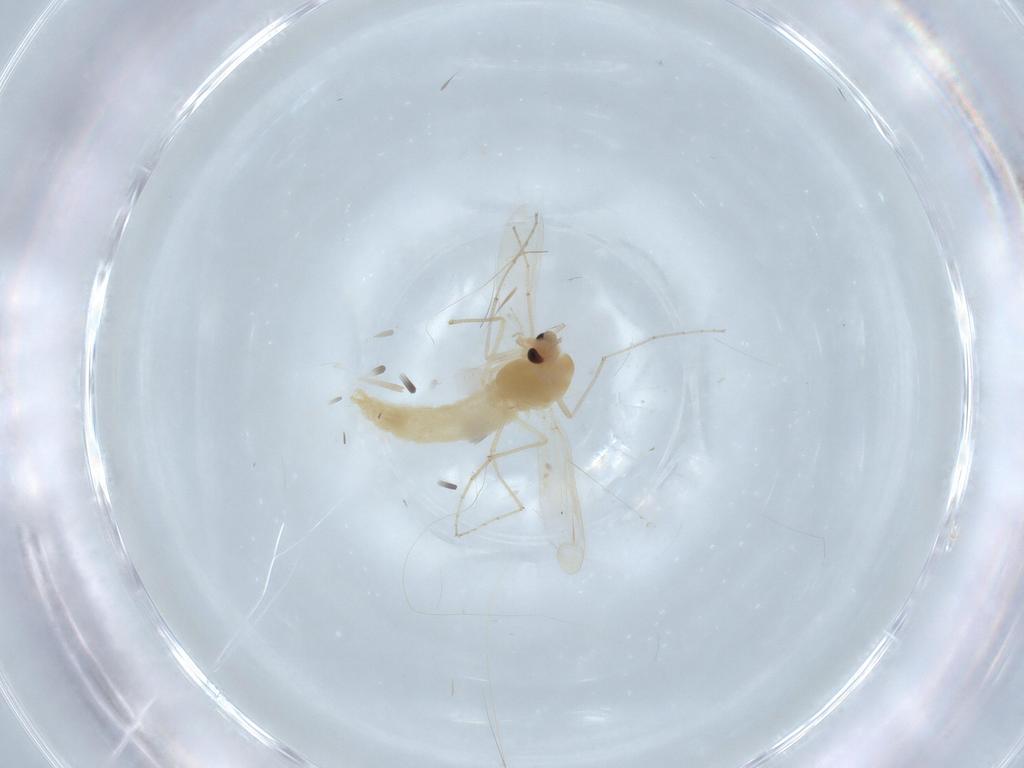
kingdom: Animalia
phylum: Arthropoda
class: Insecta
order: Diptera
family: Chironomidae
